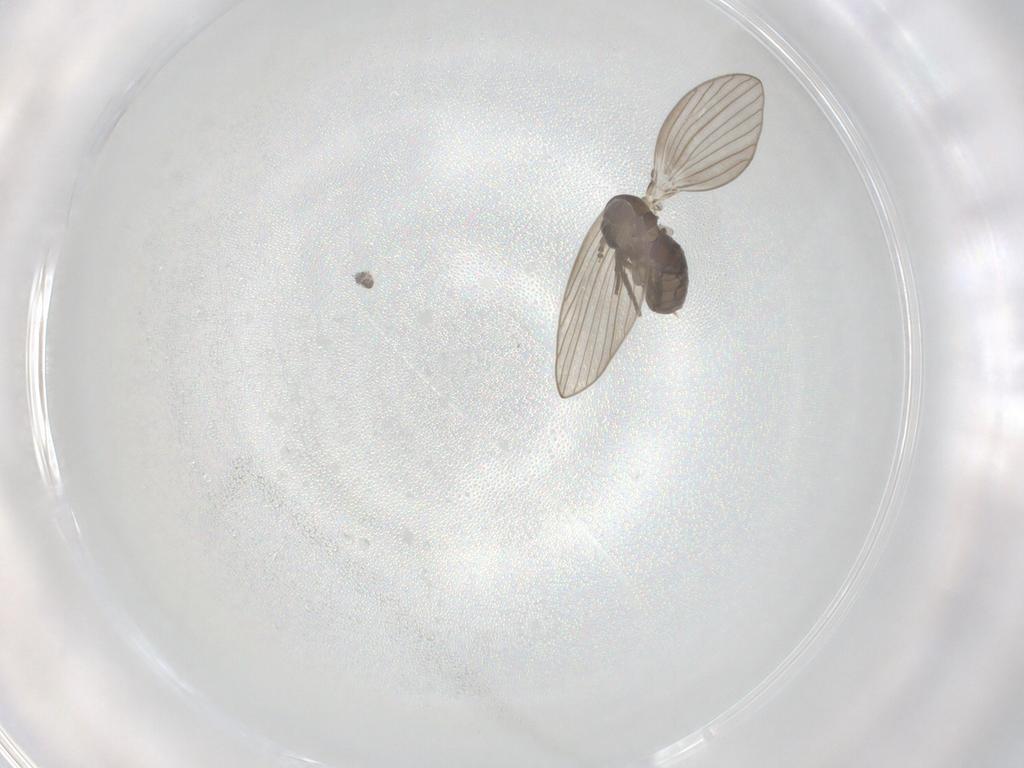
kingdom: Animalia
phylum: Arthropoda
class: Insecta
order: Diptera
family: Psychodidae
